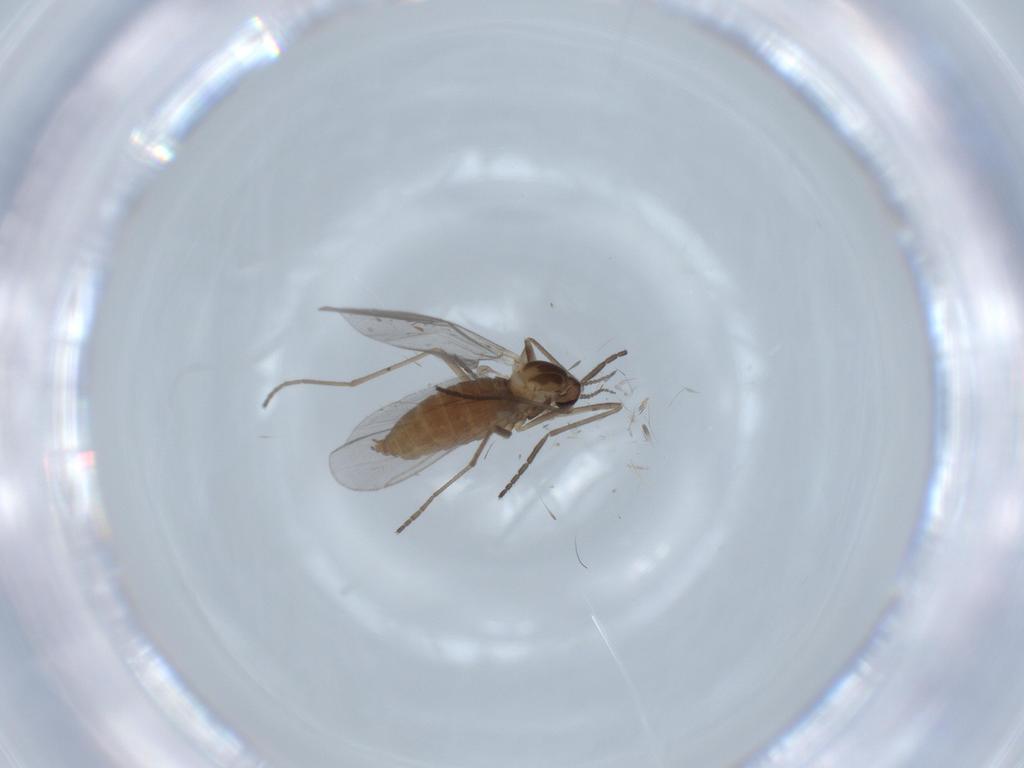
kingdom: Animalia
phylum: Arthropoda
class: Insecta
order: Diptera
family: Cecidomyiidae
